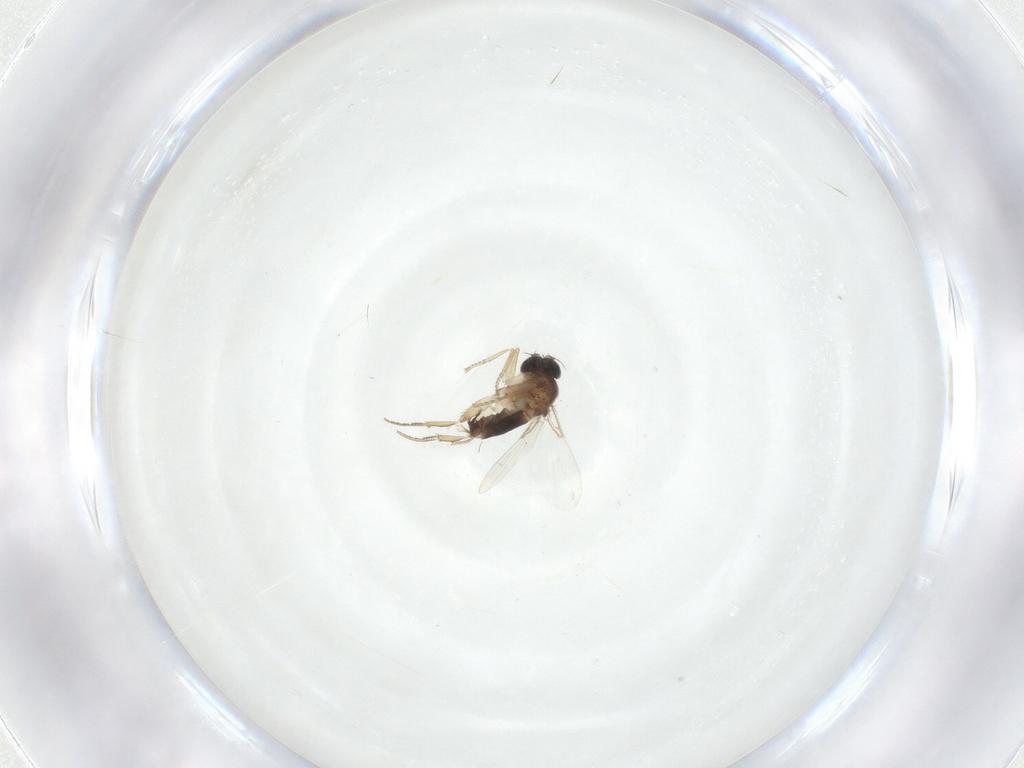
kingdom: Animalia
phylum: Arthropoda
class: Insecta
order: Diptera
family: Phoridae
